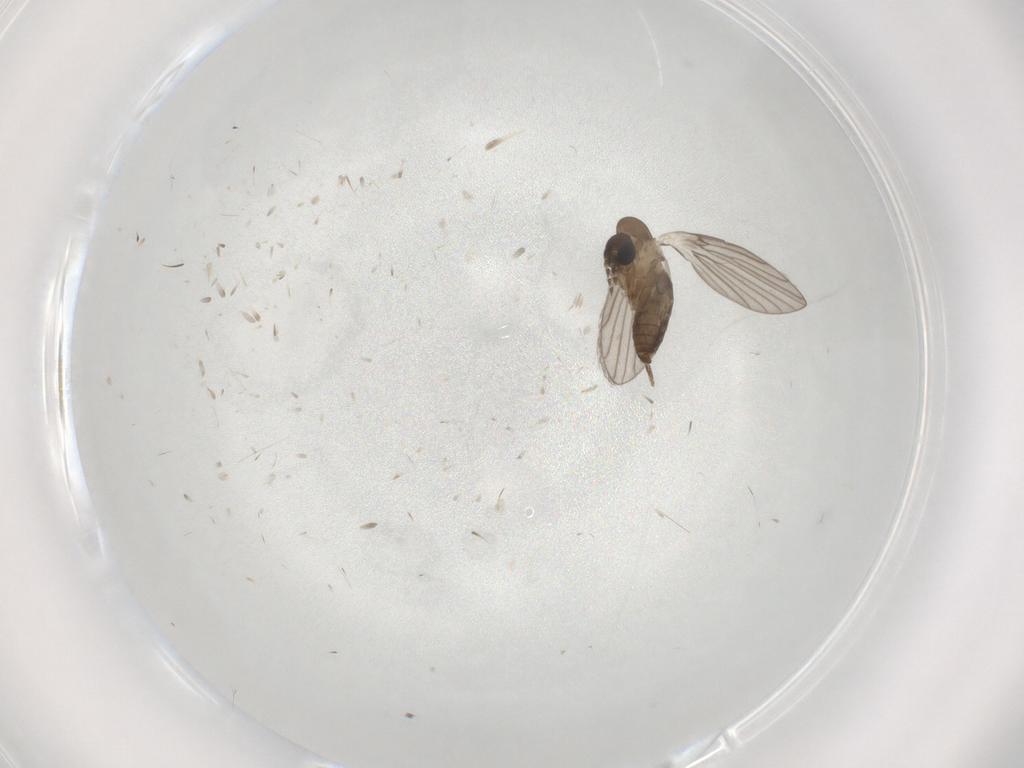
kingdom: Animalia
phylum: Arthropoda
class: Insecta
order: Diptera
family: Psychodidae
